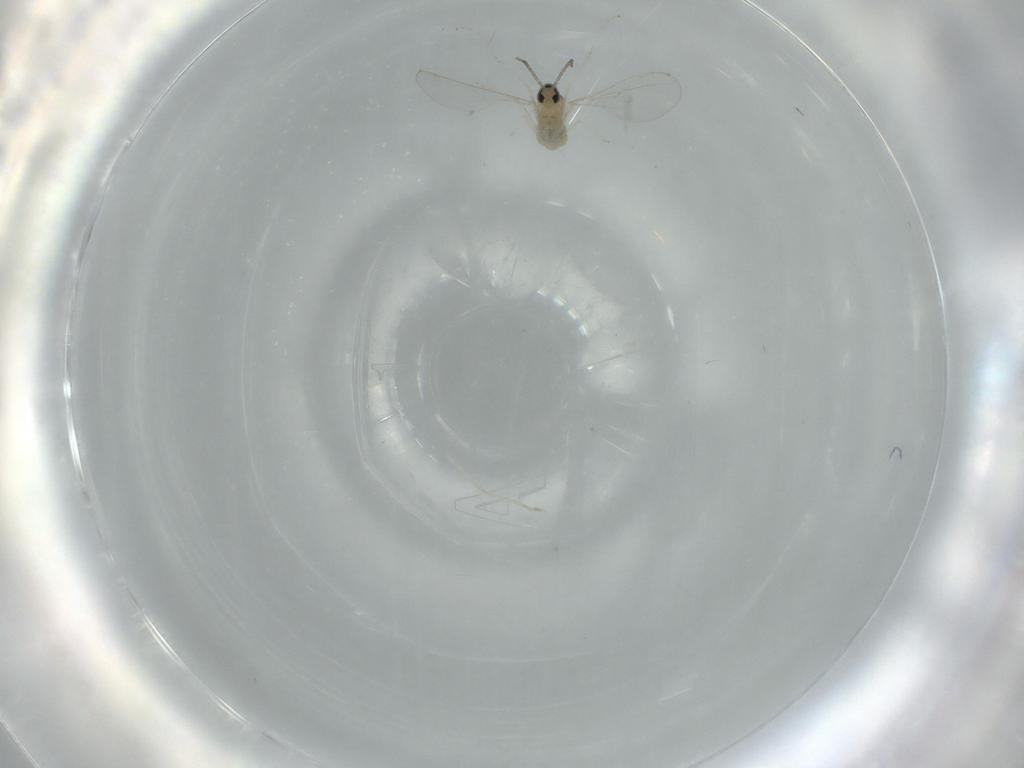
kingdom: Animalia
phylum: Arthropoda
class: Insecta
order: Diptera
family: Cecidomyiidae
